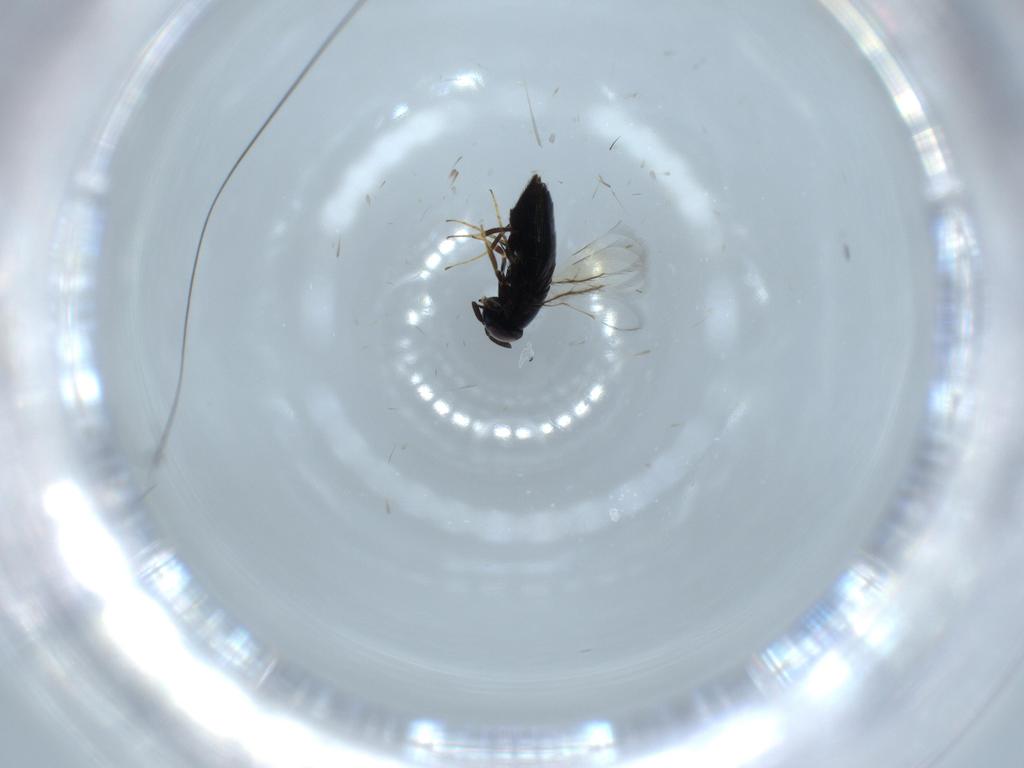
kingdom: Animalia
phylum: Arthropoda
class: Insecta
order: Hymenoptera
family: Signiphoridae
